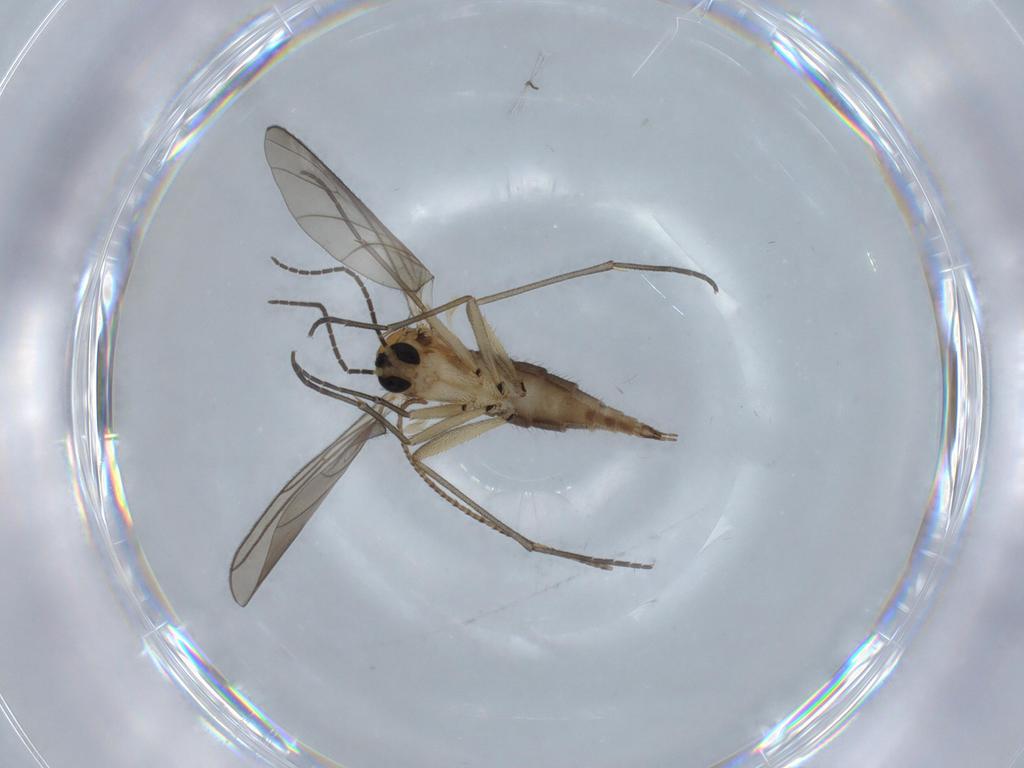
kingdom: Animalia
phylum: Arthropoda
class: Insecta
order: Diptera
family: Sciaridae
